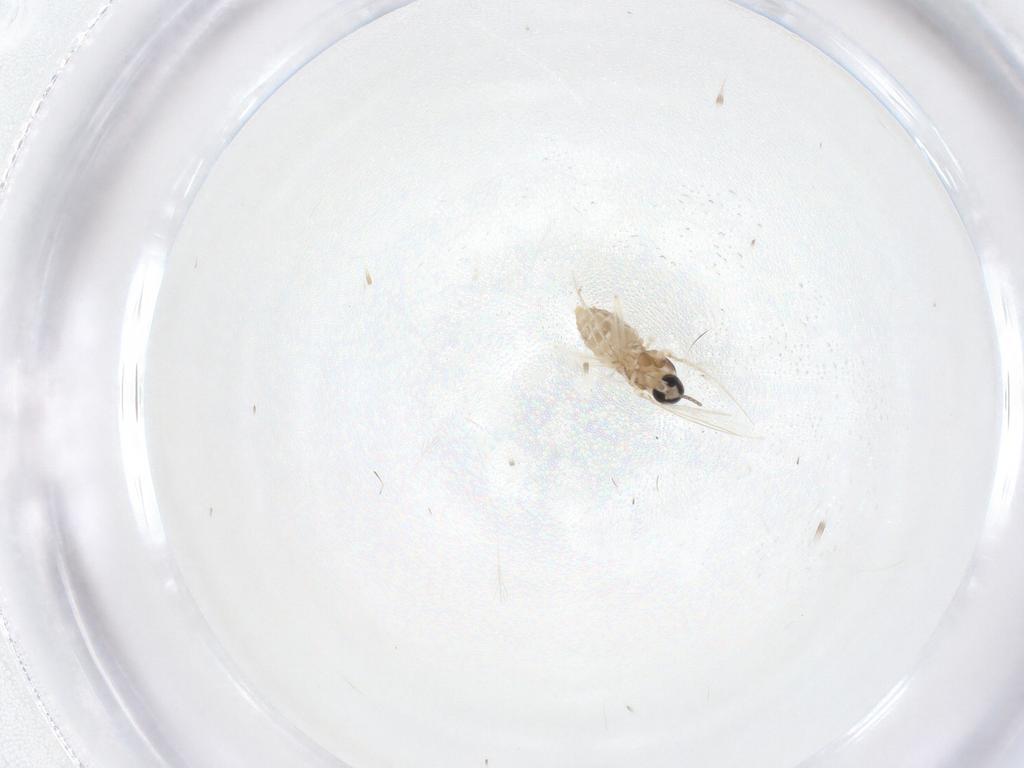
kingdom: Animalia
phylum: Arthropoda
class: Insecta
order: Diptera
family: Cecidomyiidae
